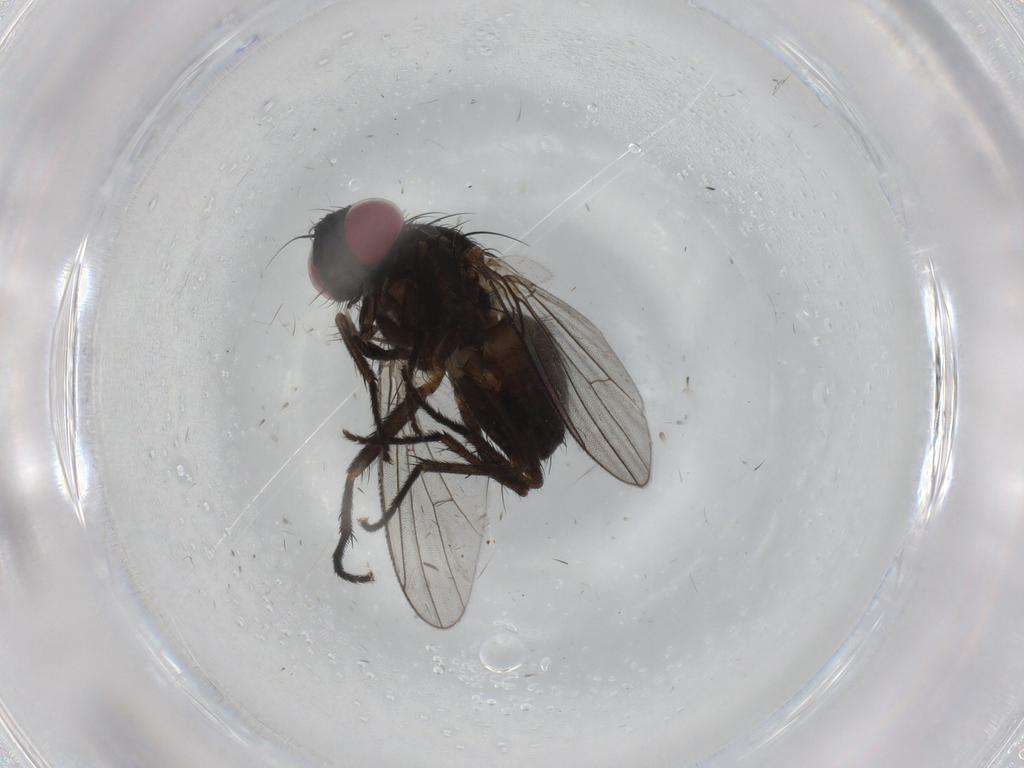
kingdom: Animalia
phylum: Arthropoda
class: Insecta
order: Diptera
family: Muscidae
